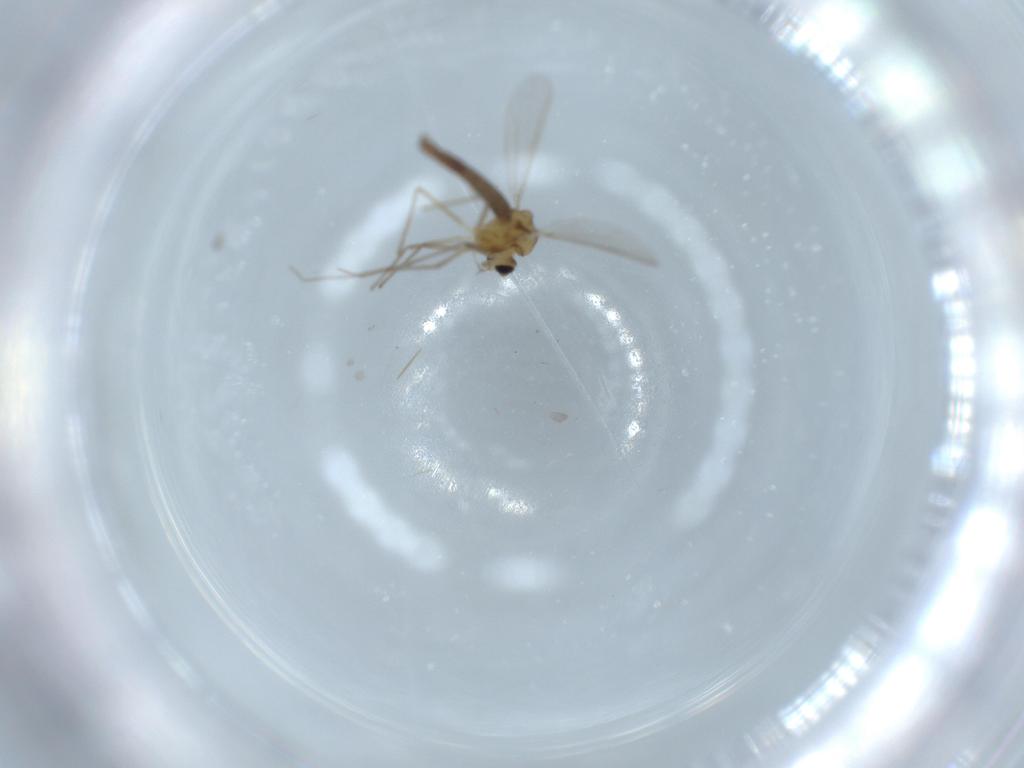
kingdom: Animalia
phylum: Arthropoda
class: Insecta
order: Diptera
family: Chironomidae
